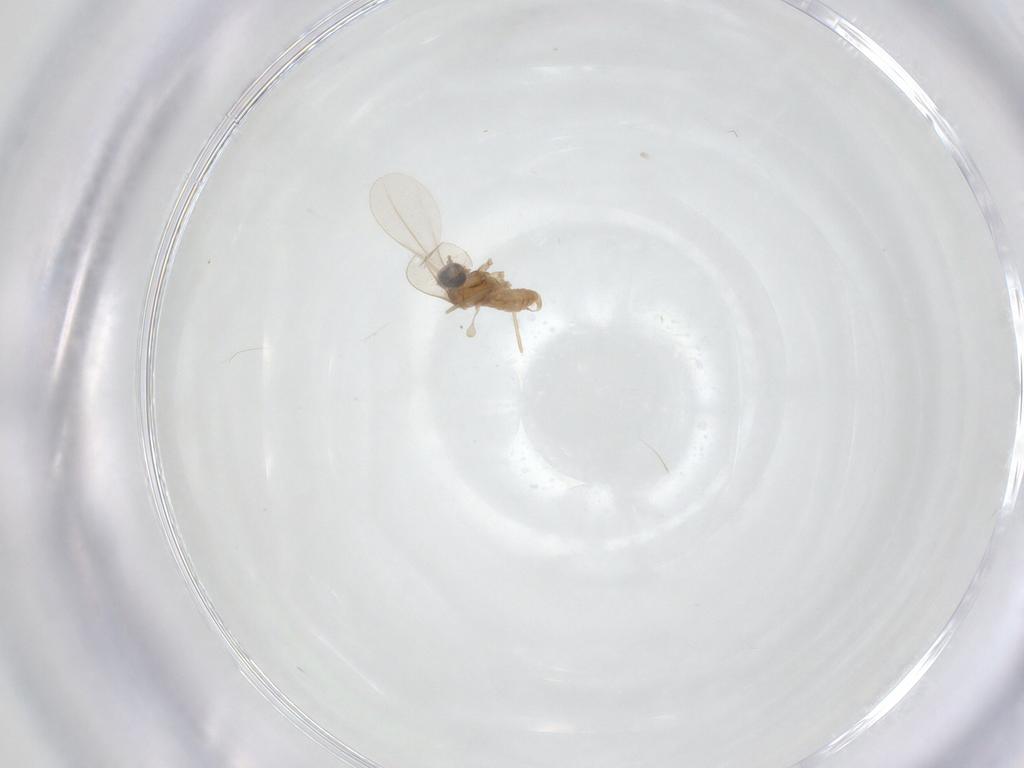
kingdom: Animalia
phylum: Arthropoda
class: Insecta
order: Diptera
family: Cecidomyiidae
